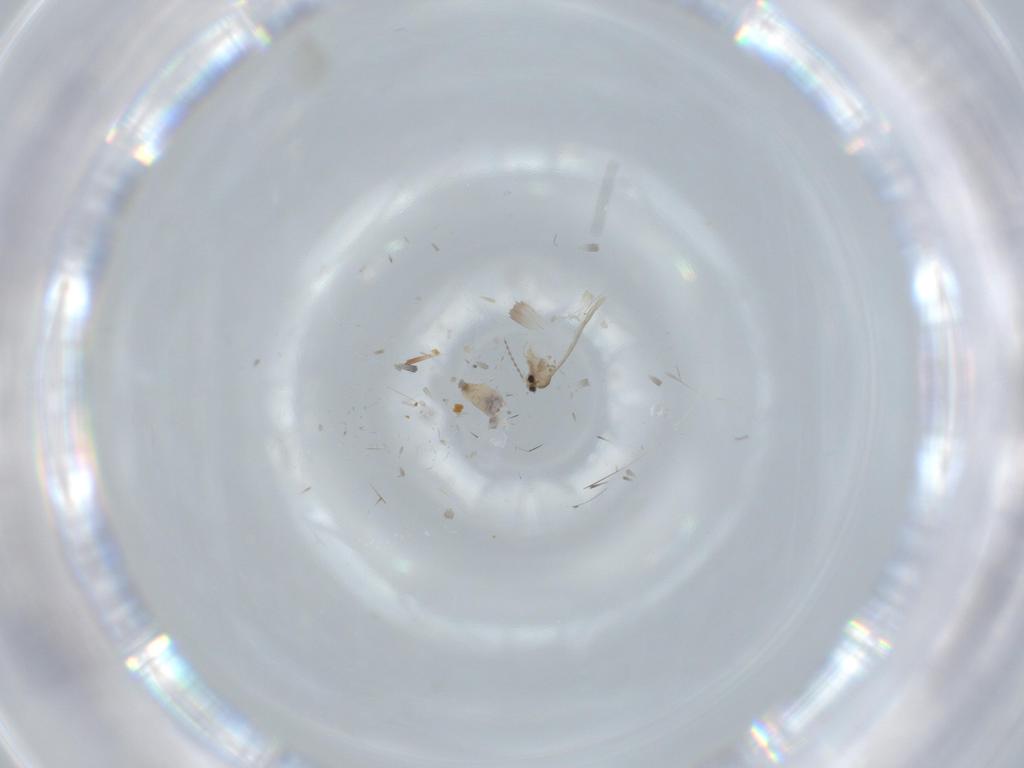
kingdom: Animalia
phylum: Arthropoda
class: Insecta
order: Diptera
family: Cecidomyiidae
